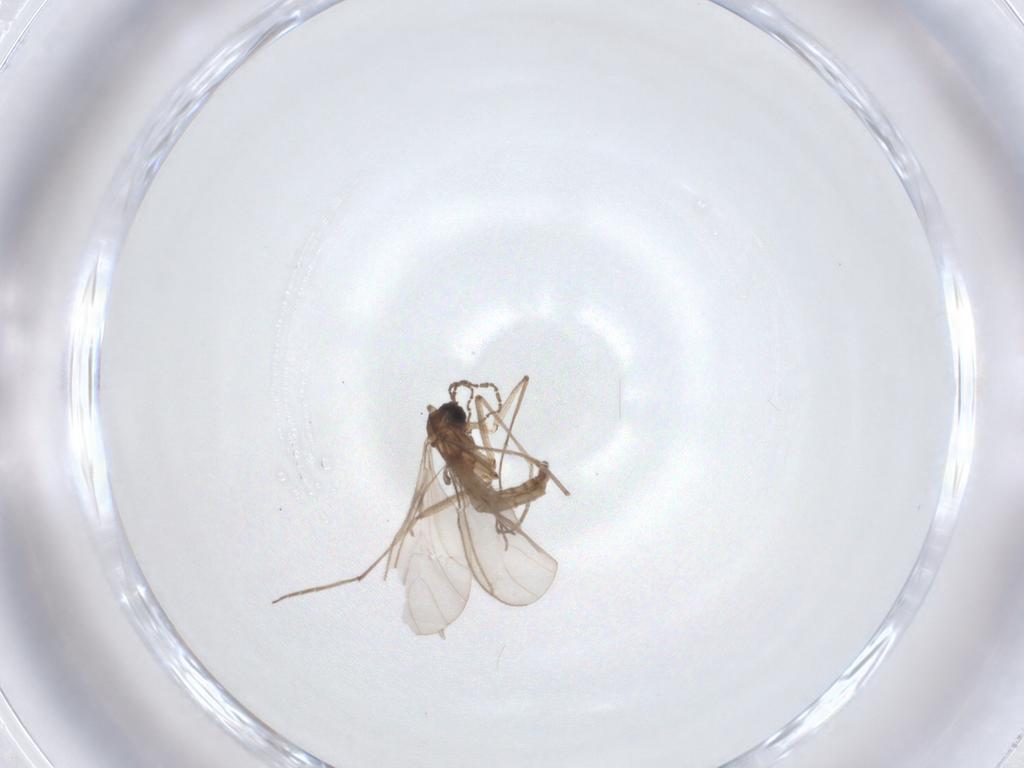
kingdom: Animalia
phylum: Arthropoda
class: Insecta
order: Diptera
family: Sciaridae
